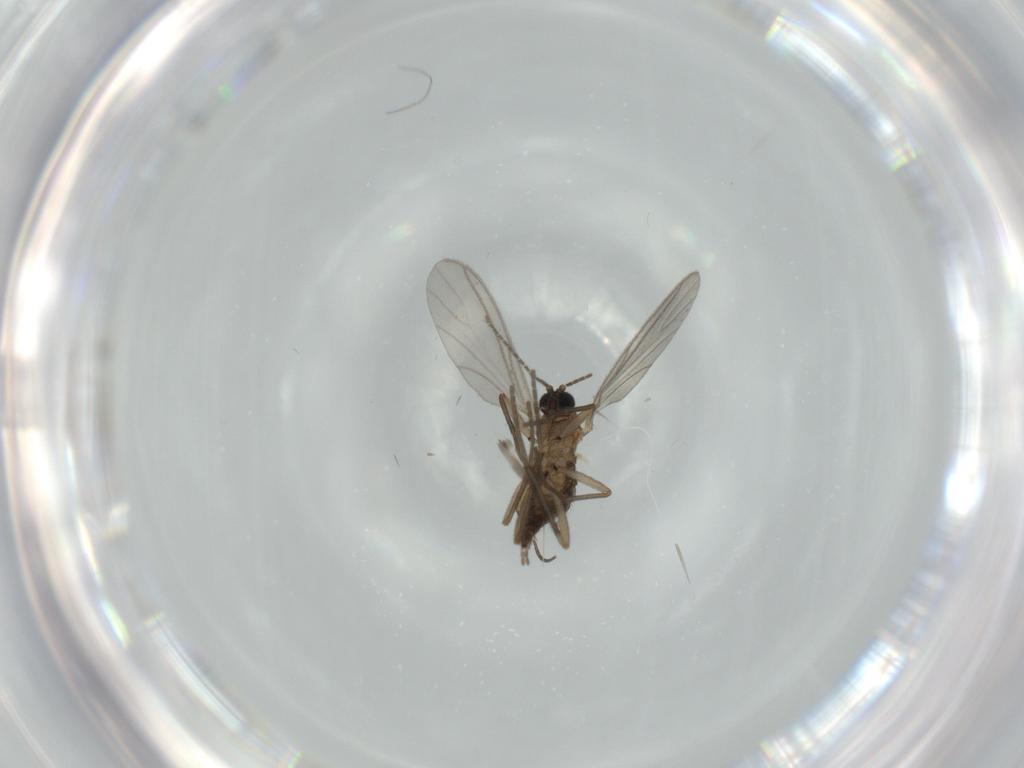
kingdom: Animalia
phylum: Arthropoda
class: Insecta
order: Diptera
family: Sciaridae
